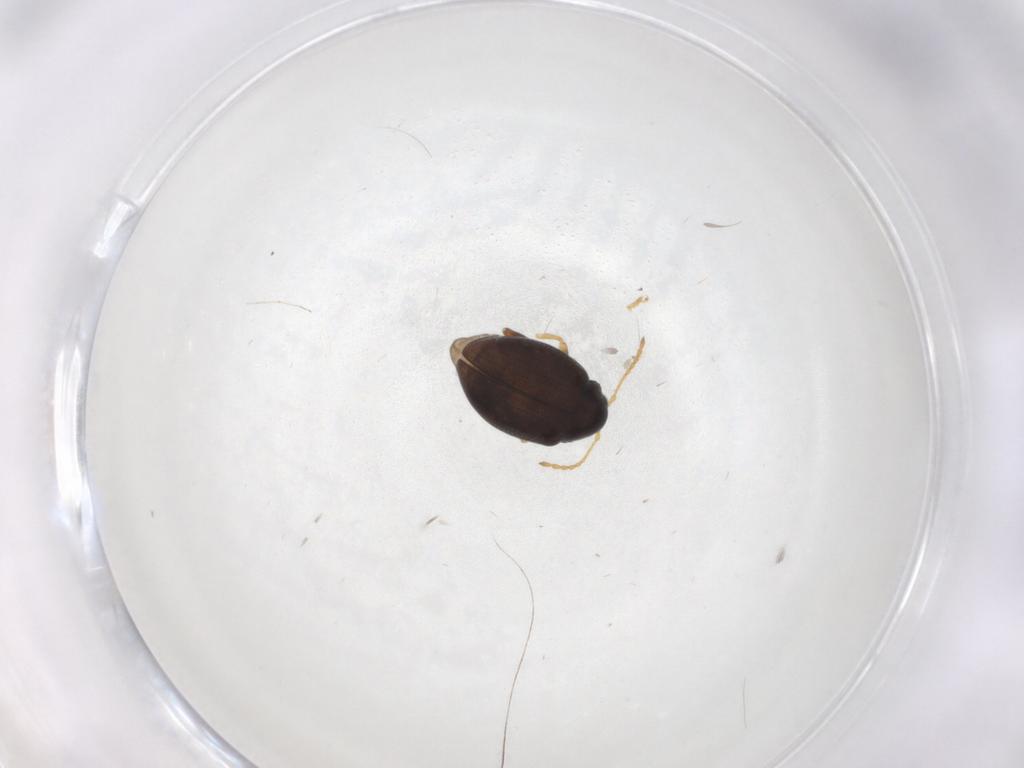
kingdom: Animalia
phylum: Arthropoda
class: Insecta
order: Coleoptera
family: Chrysomelidae
